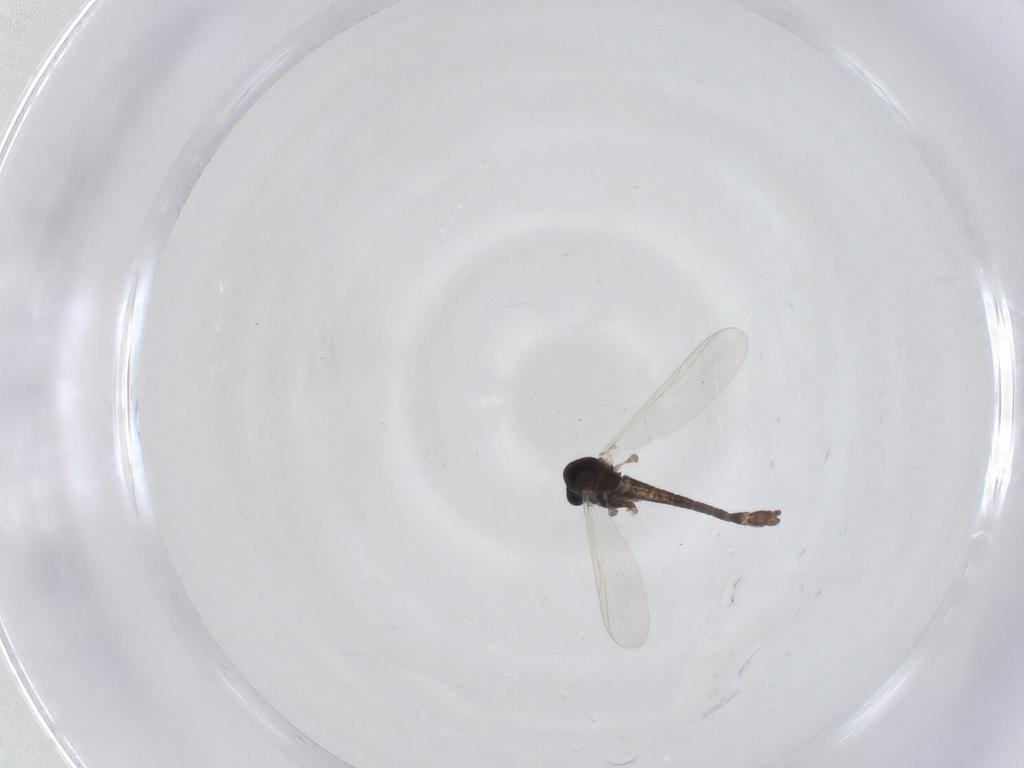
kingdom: Animalia
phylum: Arthropoda
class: Insecta
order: Diptera
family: Chironomidae
